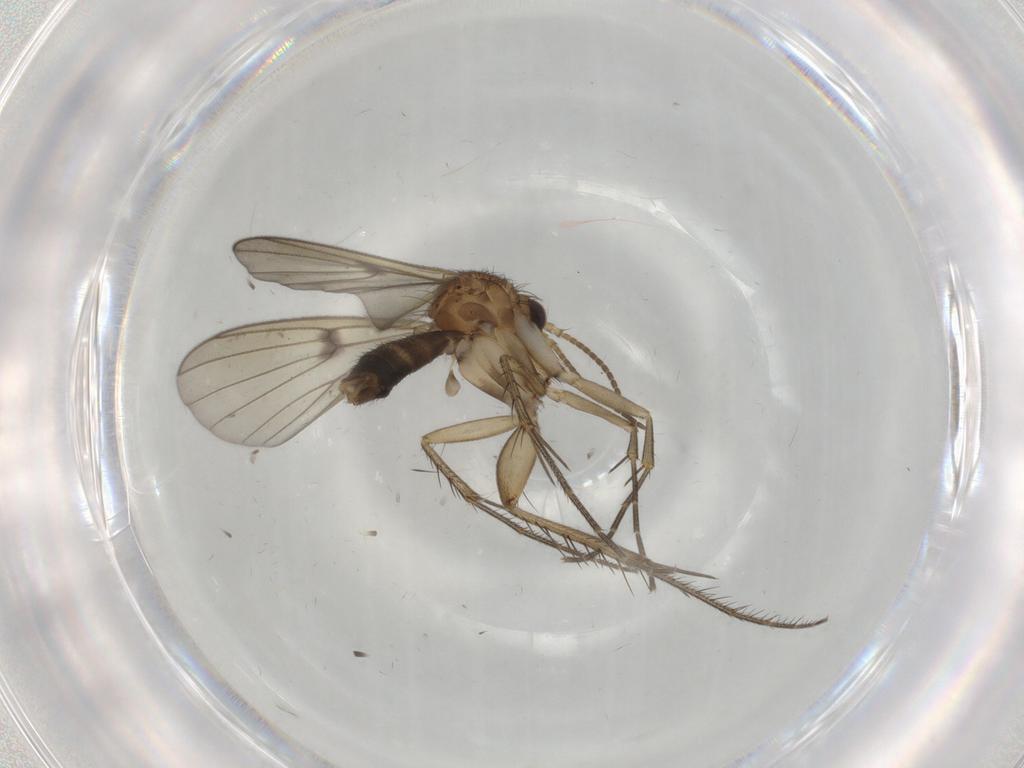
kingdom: Animalia
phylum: Arthropoda
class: Insecta
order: Diptera
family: Mycetophilidae
